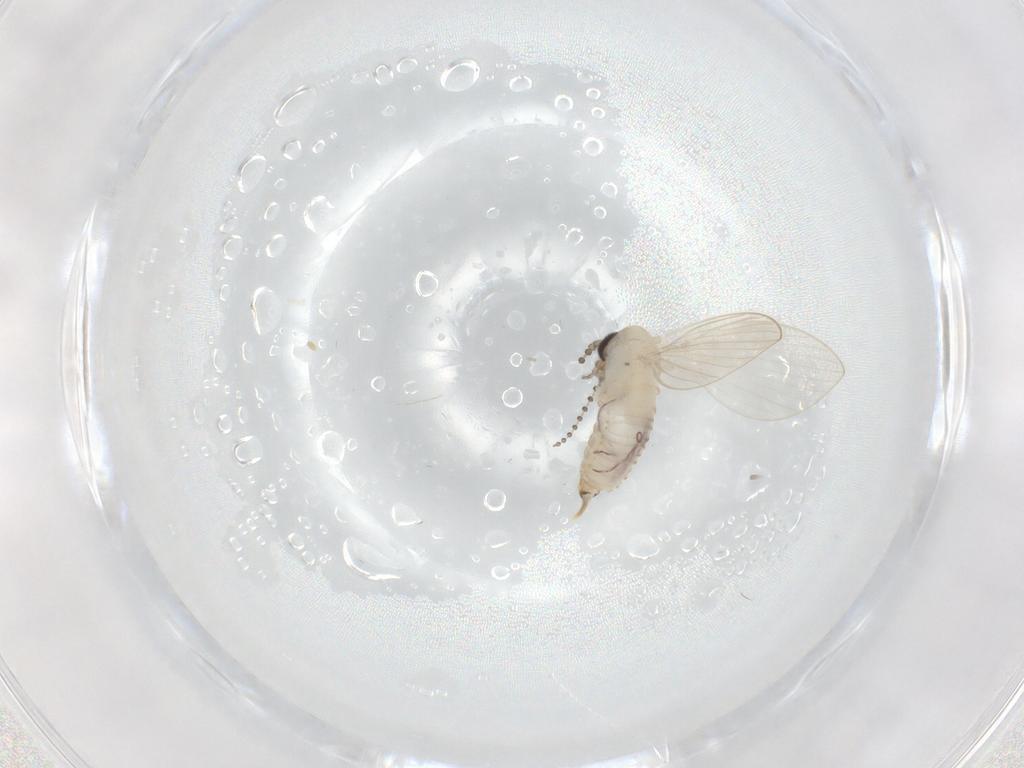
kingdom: Animalia
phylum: Arthropoda
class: Insecta
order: Diptera
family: Psychodidae
